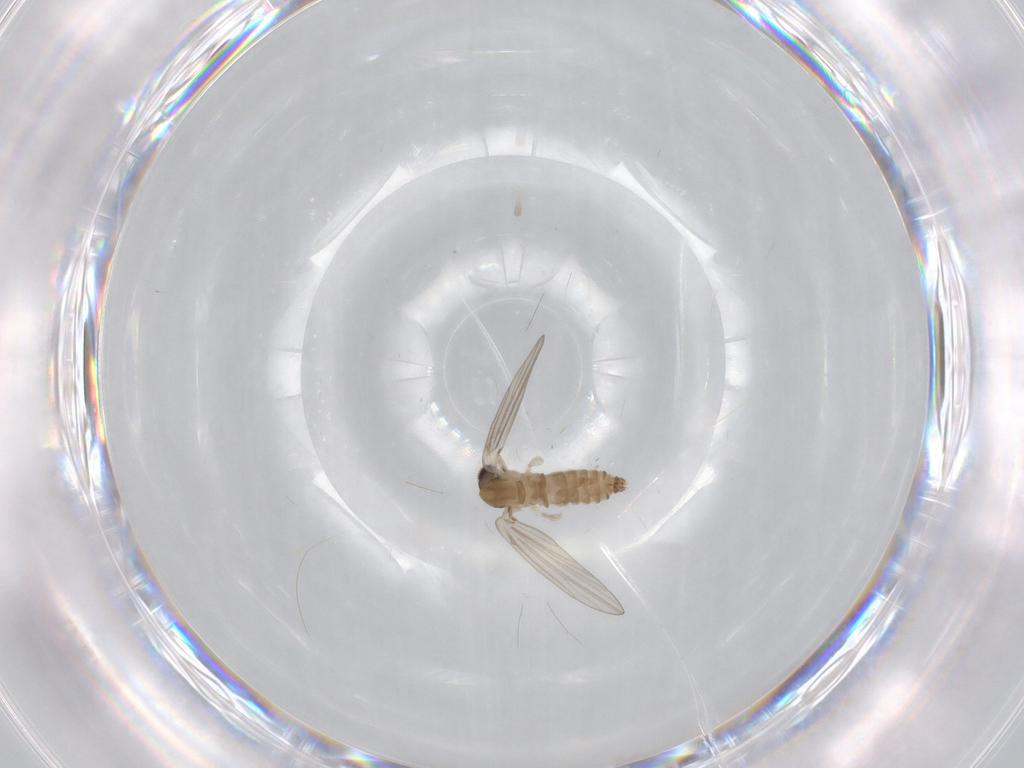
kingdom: Animalia
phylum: Arthropoda
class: Insecta
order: Diptera
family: Psychodidae
